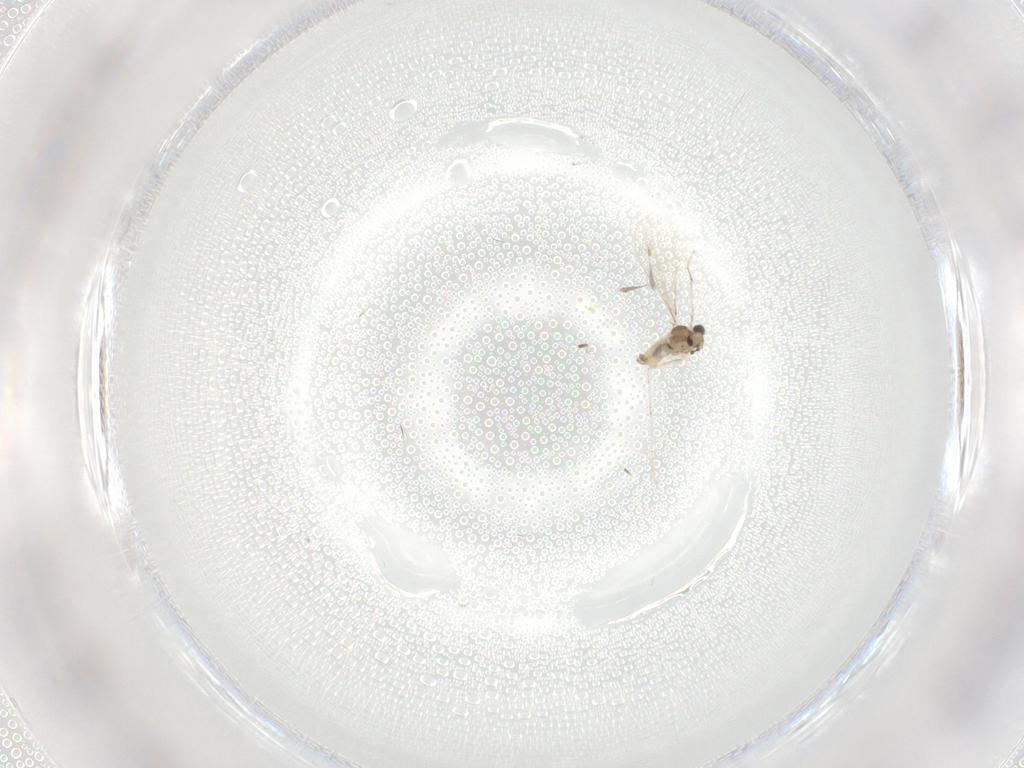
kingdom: Animalia
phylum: Arthropoda
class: Insecta
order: Diptera
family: Cecidomyiidae
